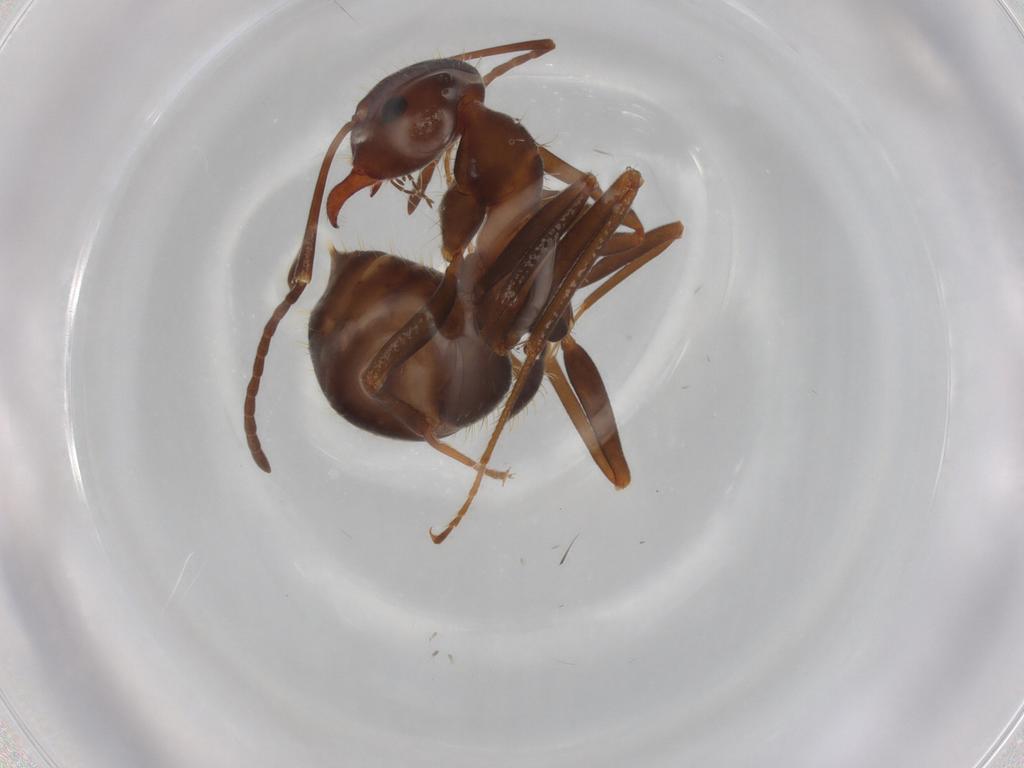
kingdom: Animalia
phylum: Arthropoda
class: Insecta
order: Hymenoptera
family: Formicidae
